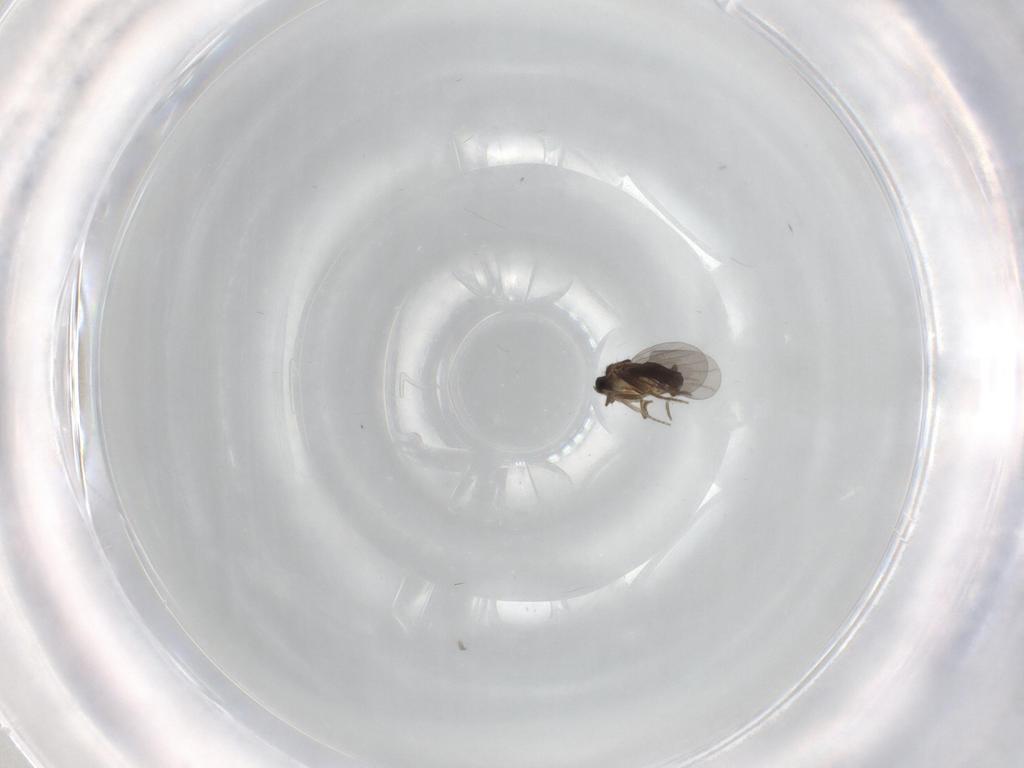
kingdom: Animalia
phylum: Arthropoda
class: Insecta
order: Diptera
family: Chironomidae
